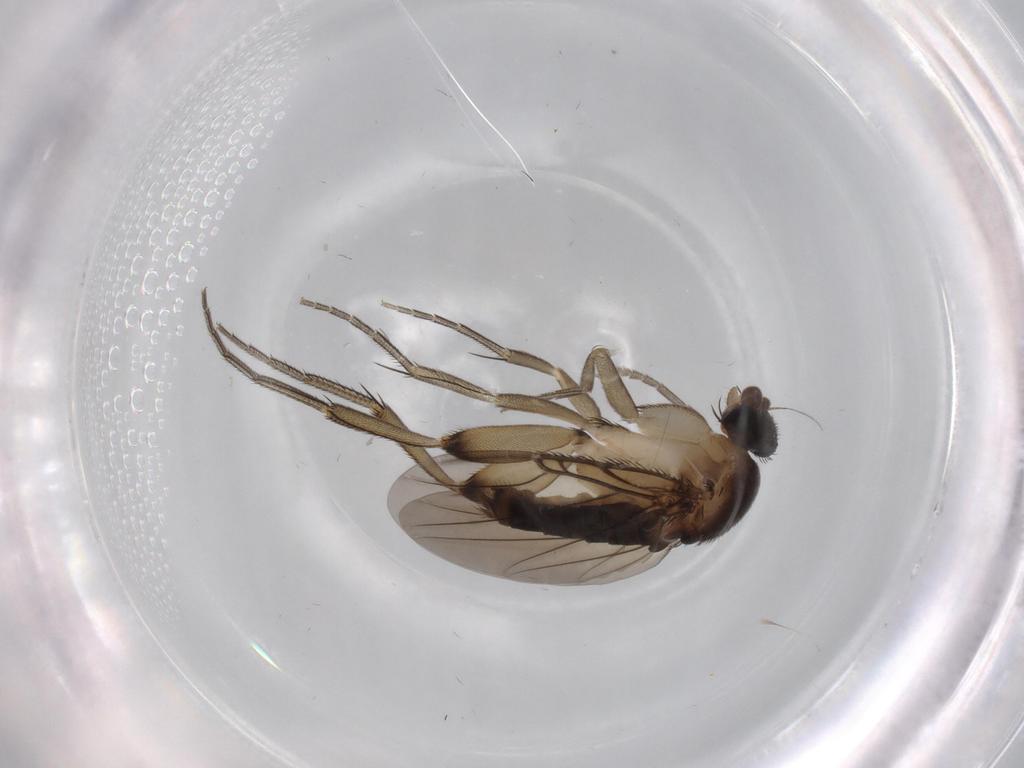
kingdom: Animalia
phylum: Arthropoda
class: Insecta
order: Diptera
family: Phoridae
